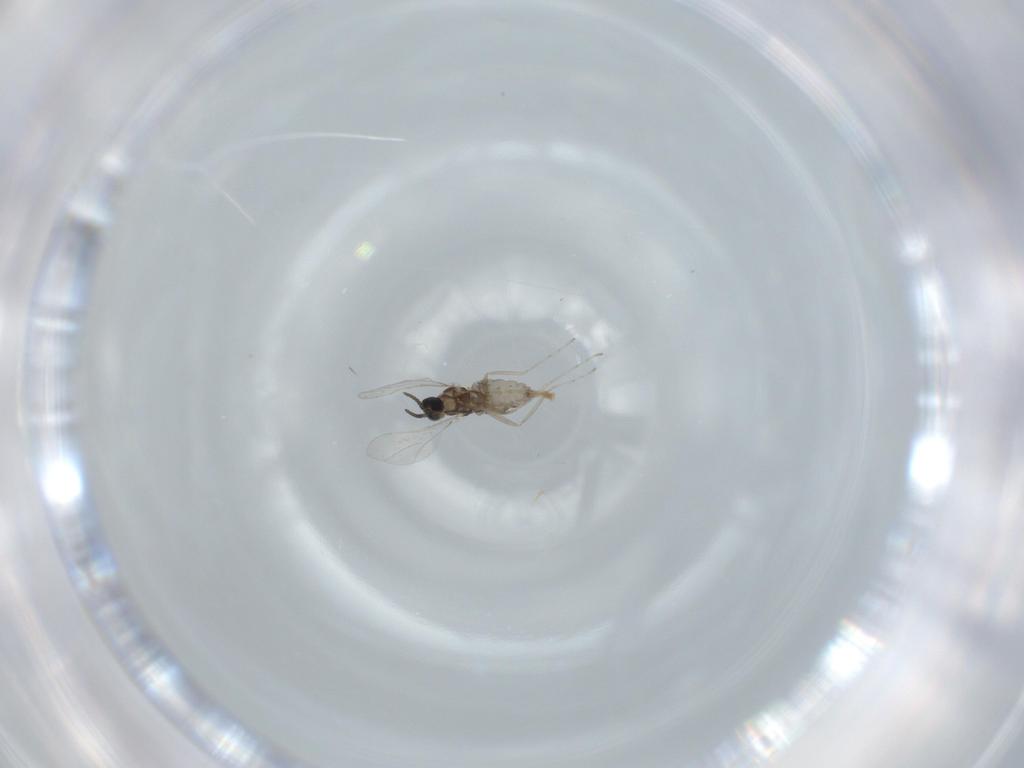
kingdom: Animalia
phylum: Arthropoda
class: Insecta
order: Diptera
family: Cecidomyiidae
